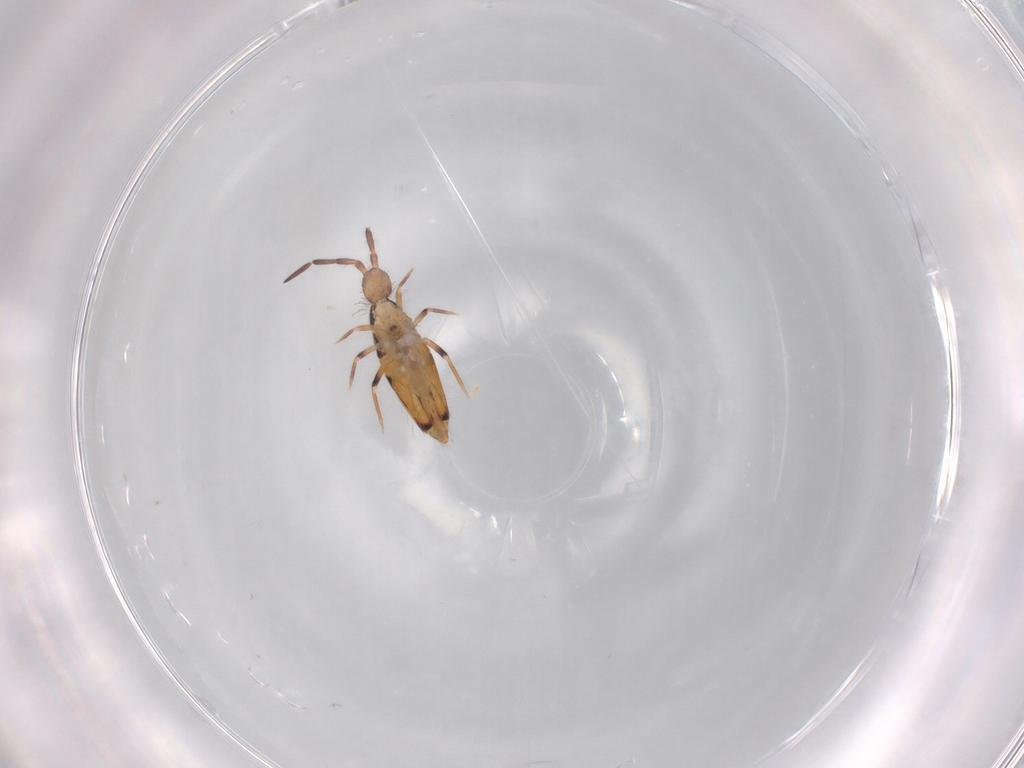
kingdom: Animalia
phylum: Arthropoda
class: Collembola
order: Entomobryomorpha
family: Entomobryidae
